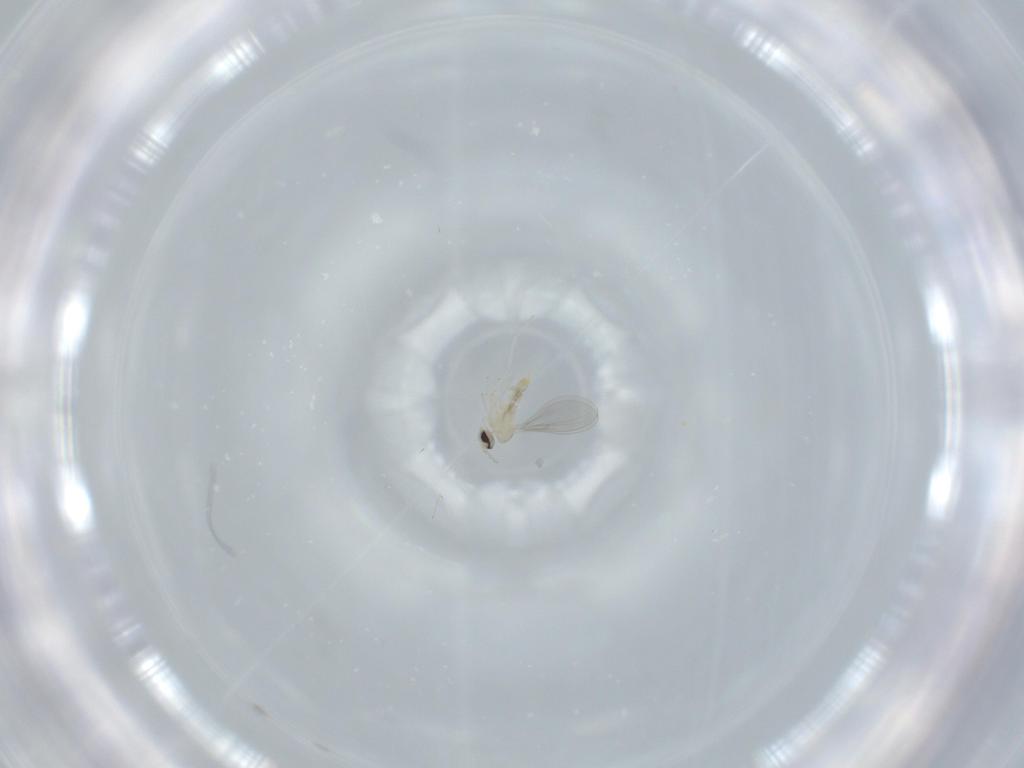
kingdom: Animalia
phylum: Arthropoda
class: Insecta
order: Diptera
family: Cecidomyiidae
